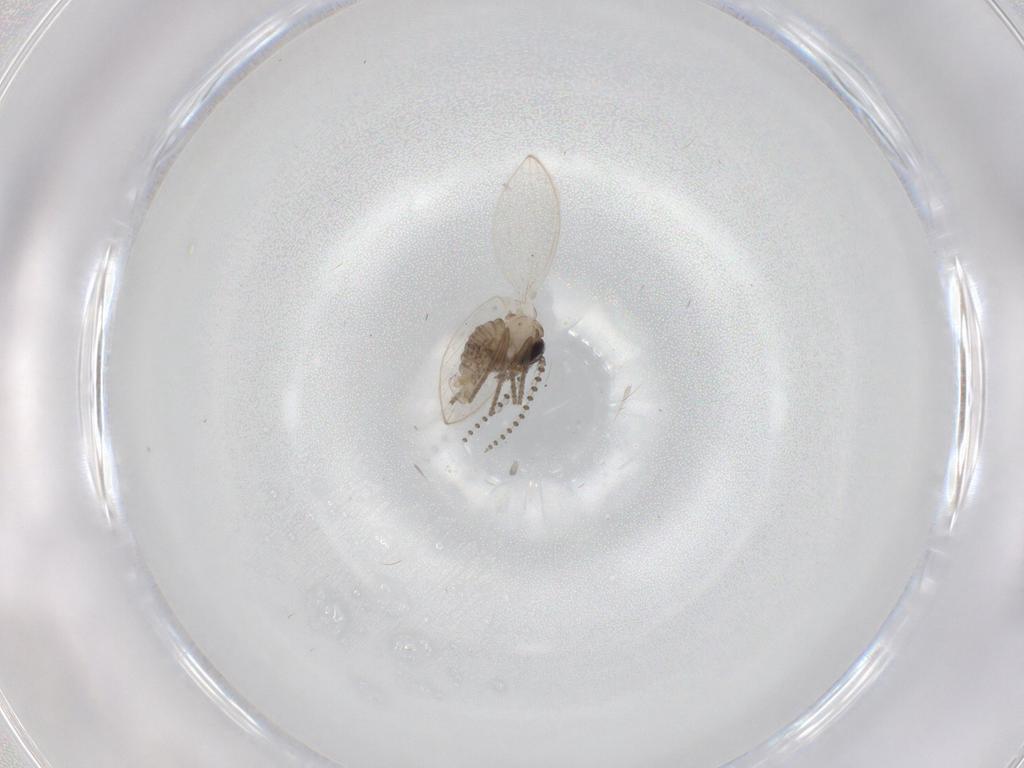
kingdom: Animalia
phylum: Arthropoda
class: Insecta
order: Diptera
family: Psychodidae
